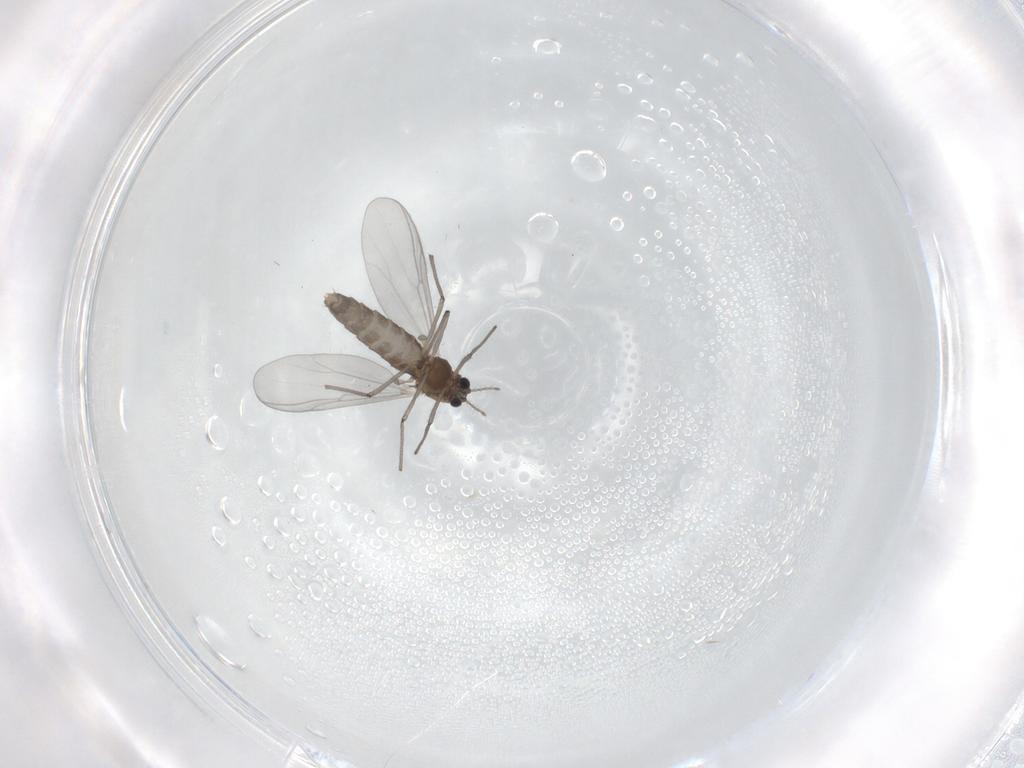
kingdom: Animalia
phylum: Arthropoda
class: Insecta
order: Diptera
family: Chironomidae
